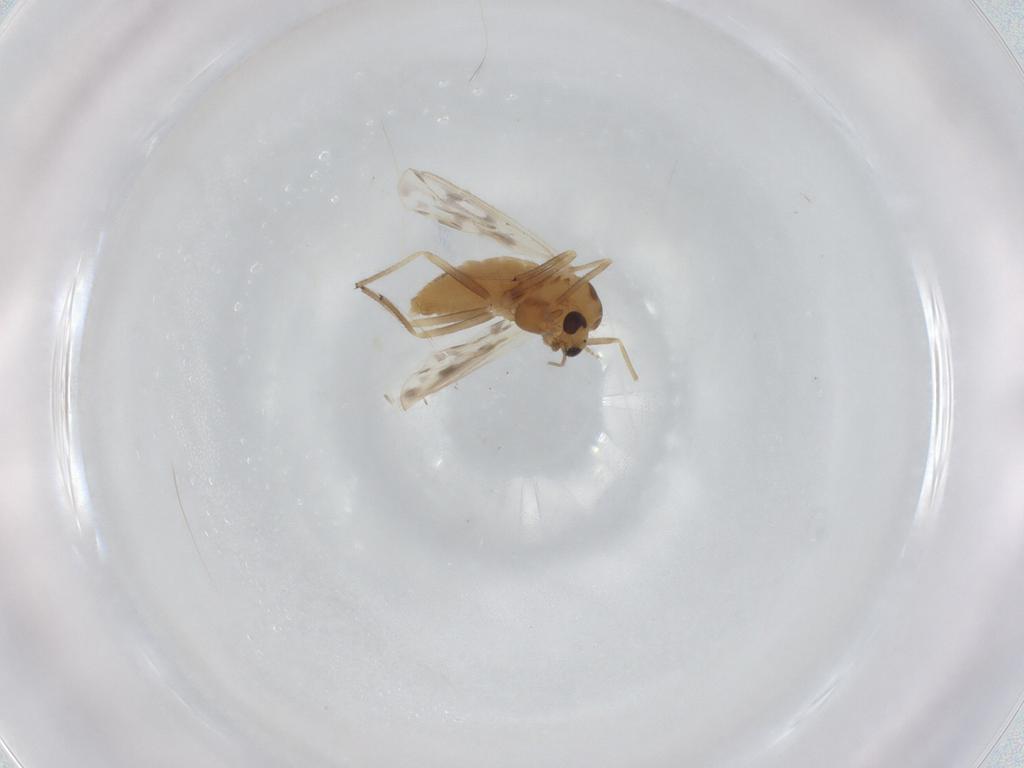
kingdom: Animalia
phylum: Arthropoda
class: Insecta
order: Diptera
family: Chironomidae
